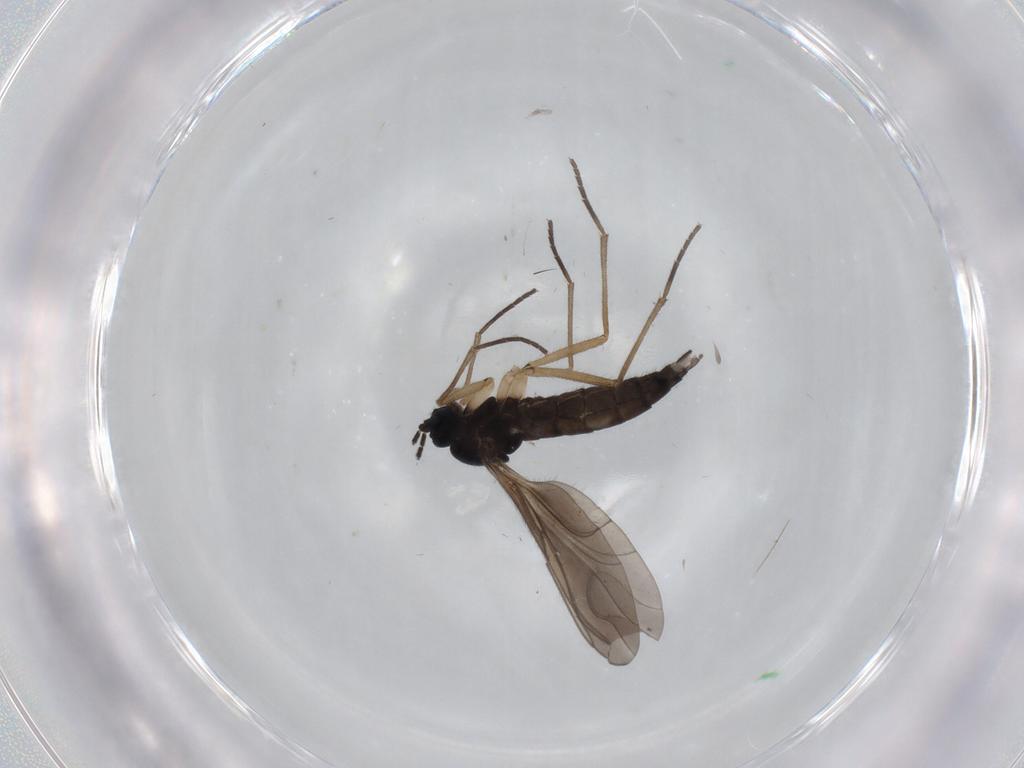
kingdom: Animalia
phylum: Arthropoda
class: Insecta
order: Diptera
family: Sciaridae
